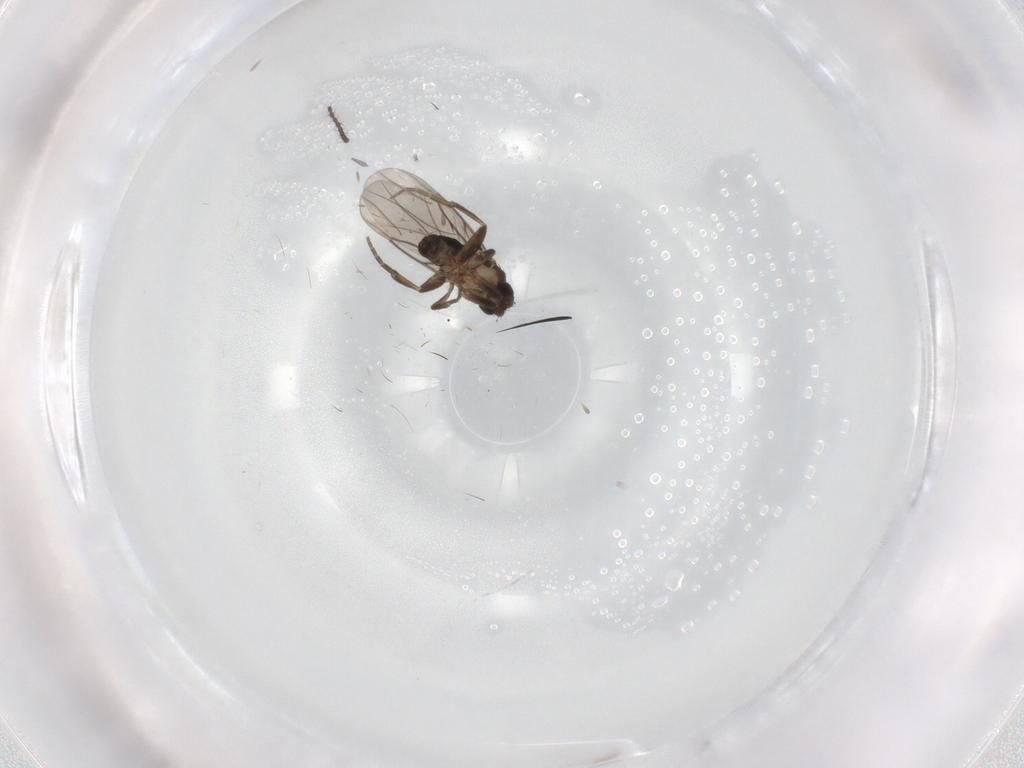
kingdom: Animalia
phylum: Arthropoda
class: Insecta
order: Diptera
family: Phoridae
